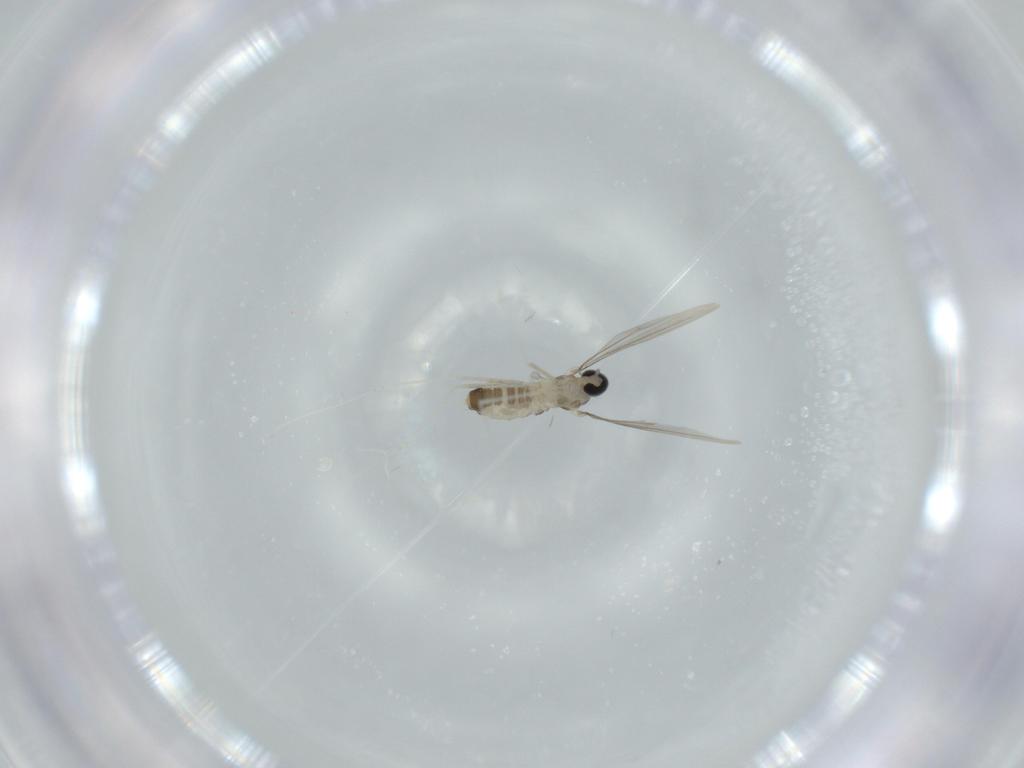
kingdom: Animalia
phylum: Arthropoda
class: Insecta
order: Diptera
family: Cecidomyiidae
